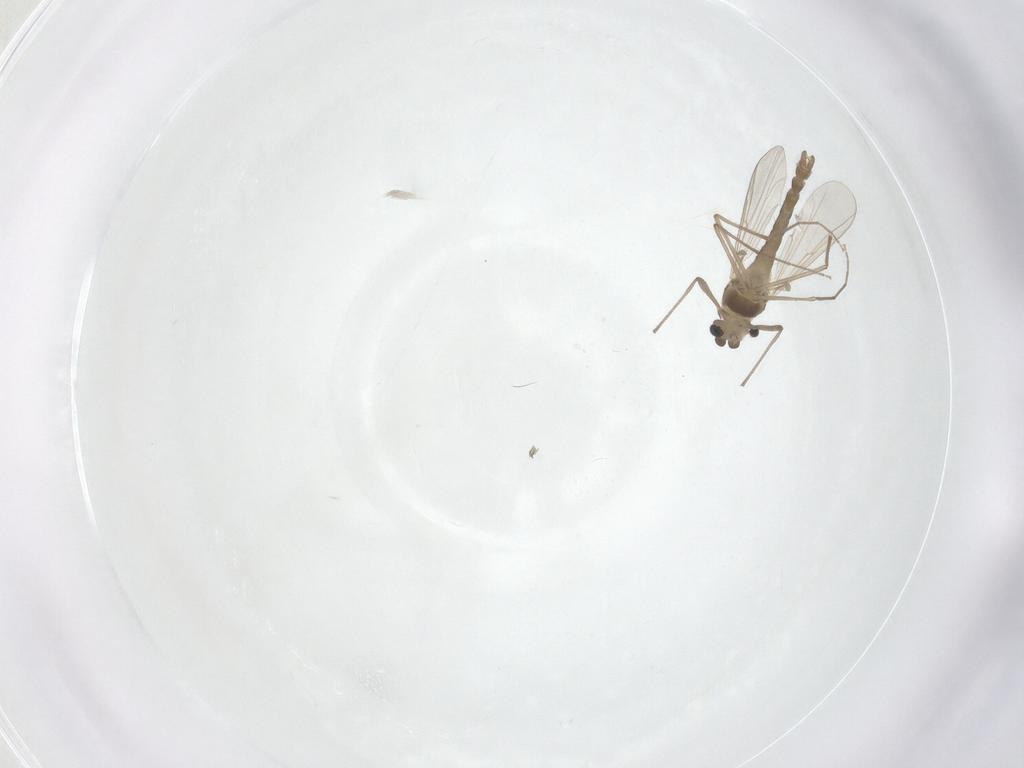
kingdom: Animalia
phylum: Arthropoda
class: Insecta
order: Diptera
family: Chironomidae
